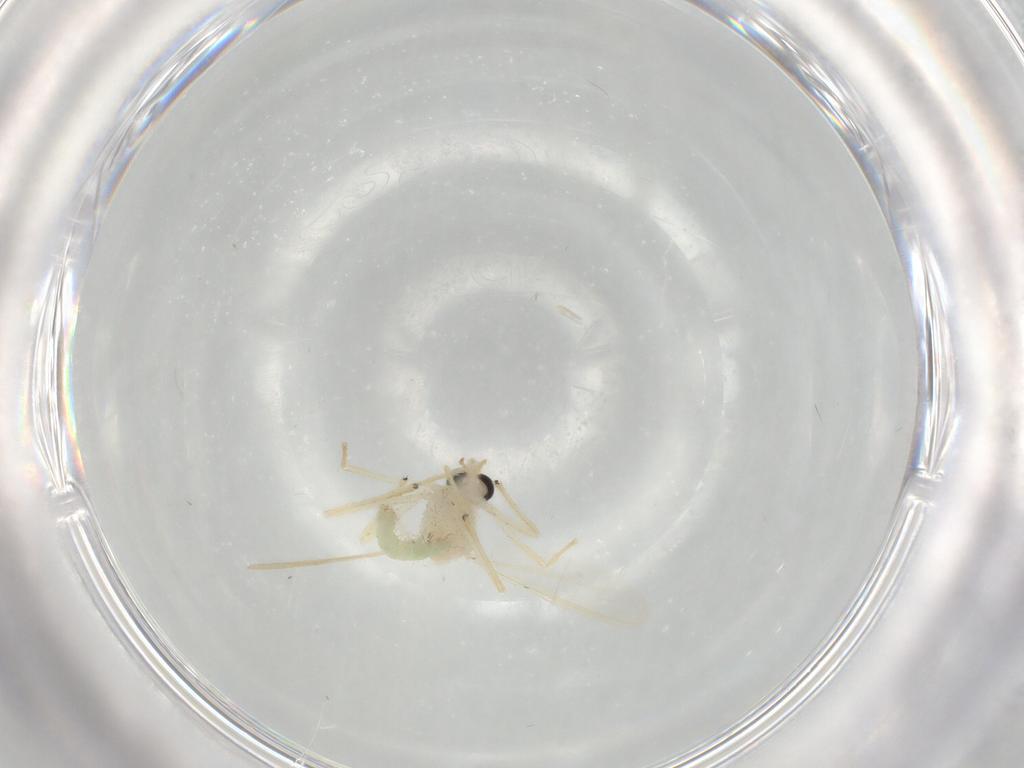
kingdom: Animalia
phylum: Arthropoda
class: Insecta
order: Diptera
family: Chironomidae
